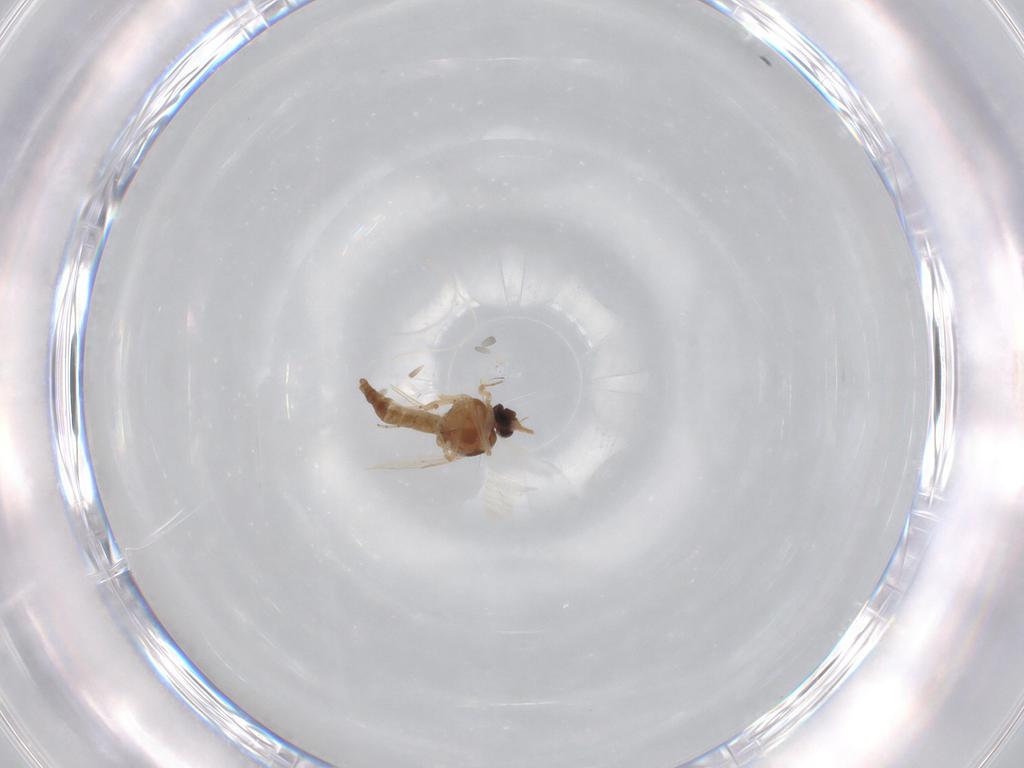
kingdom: Animalia
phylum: Arthropoda
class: Insecta
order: Diptera
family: Ceratopogonidae
